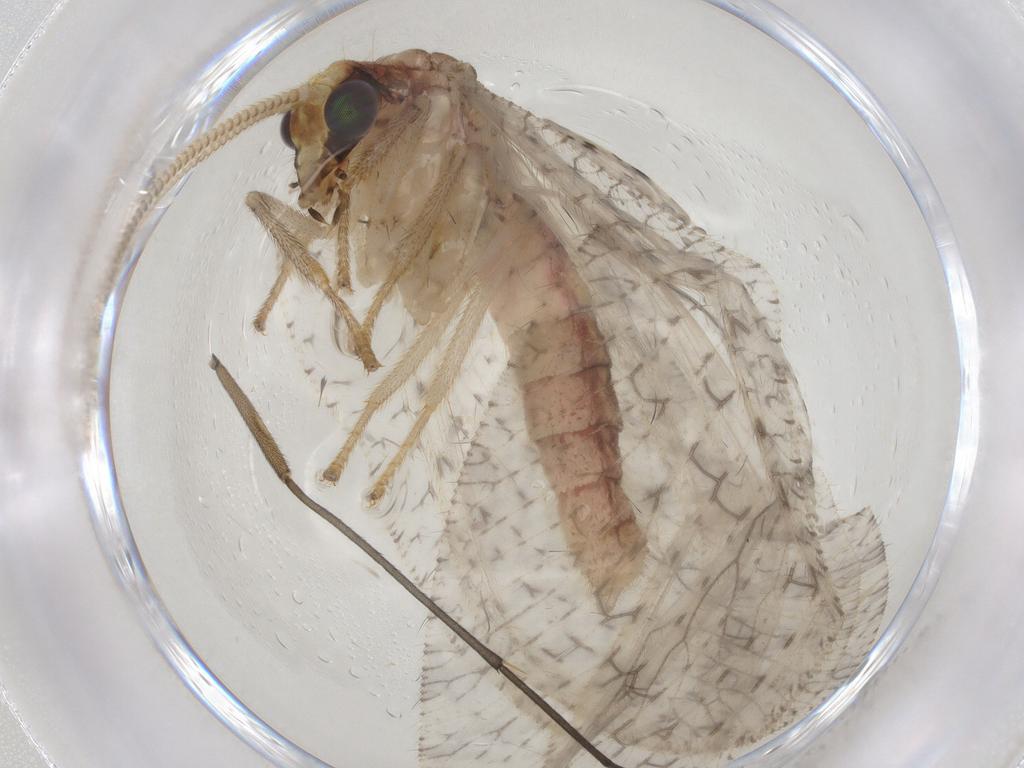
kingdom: Animalia
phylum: Arthropoda
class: Insecta
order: Neuroptera
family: Hemerobiidae
